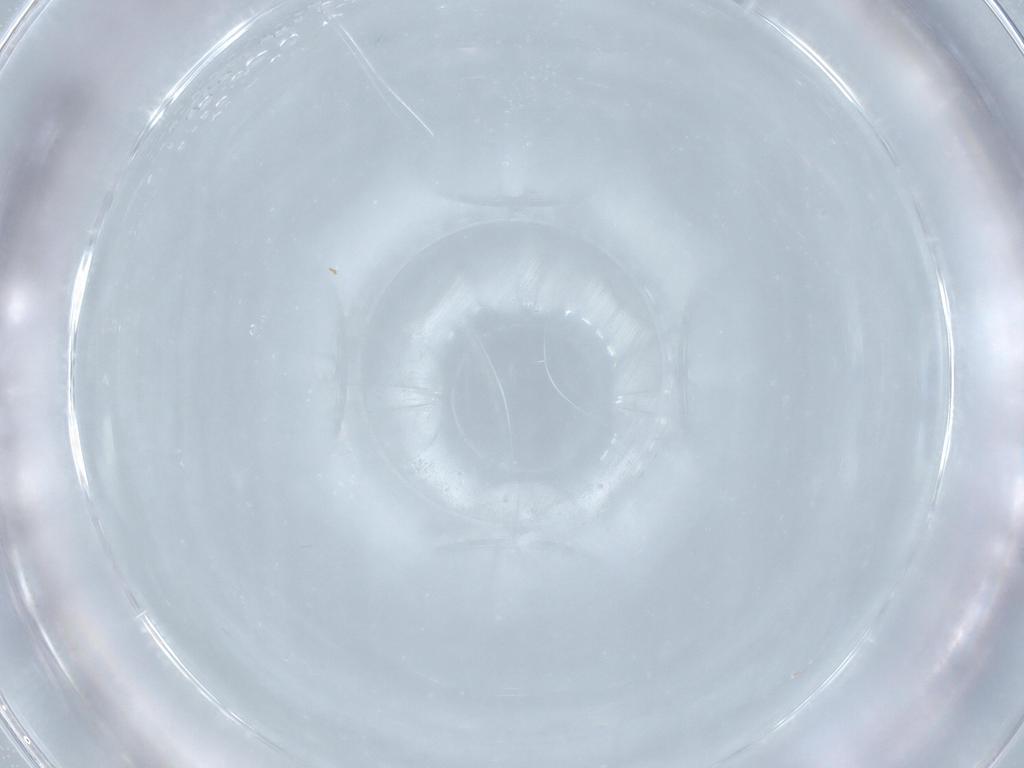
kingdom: Animalia
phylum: Arthropoda
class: Insecta
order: Hymenoptera
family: Mymaridae
